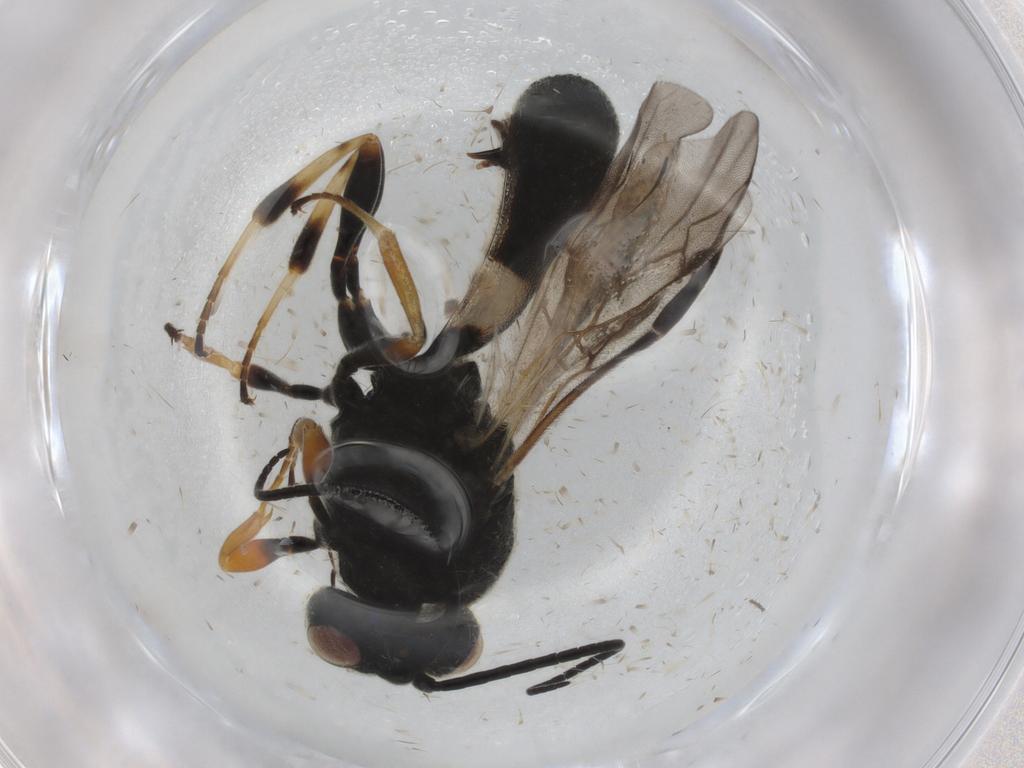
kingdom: Animalia
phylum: Arthropoda
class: Insecta
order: Hymenoptera
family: Braconidae
